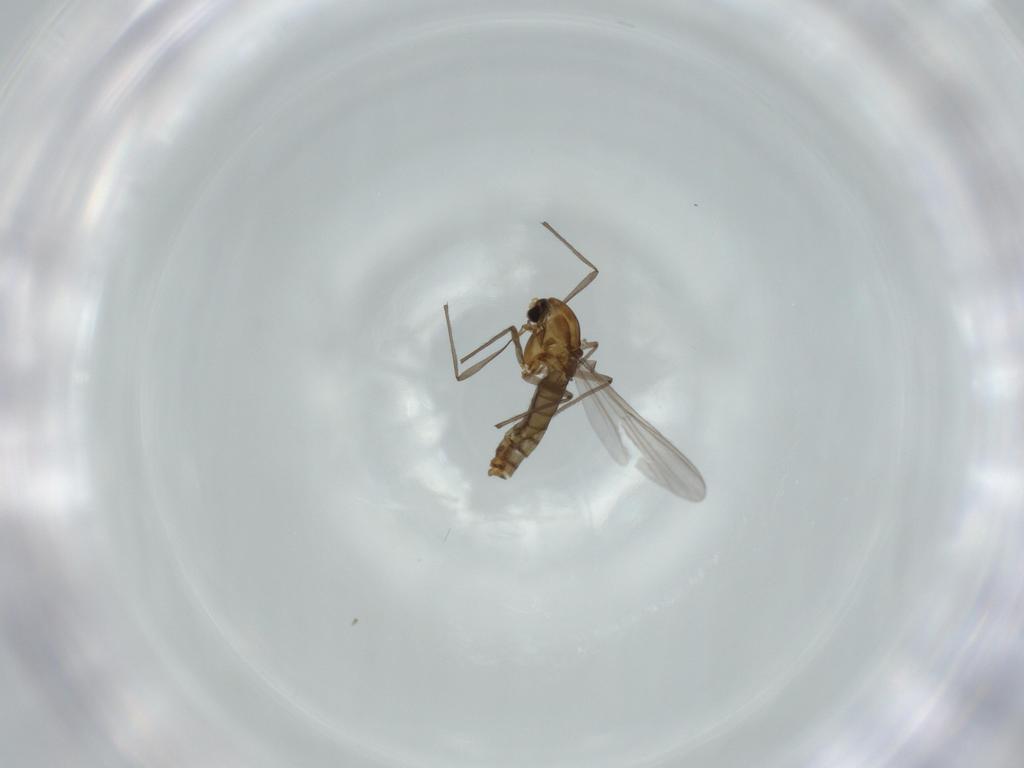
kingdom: Animalia
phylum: Arthropoda
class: Insecta
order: Diptera
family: Chironomidae
